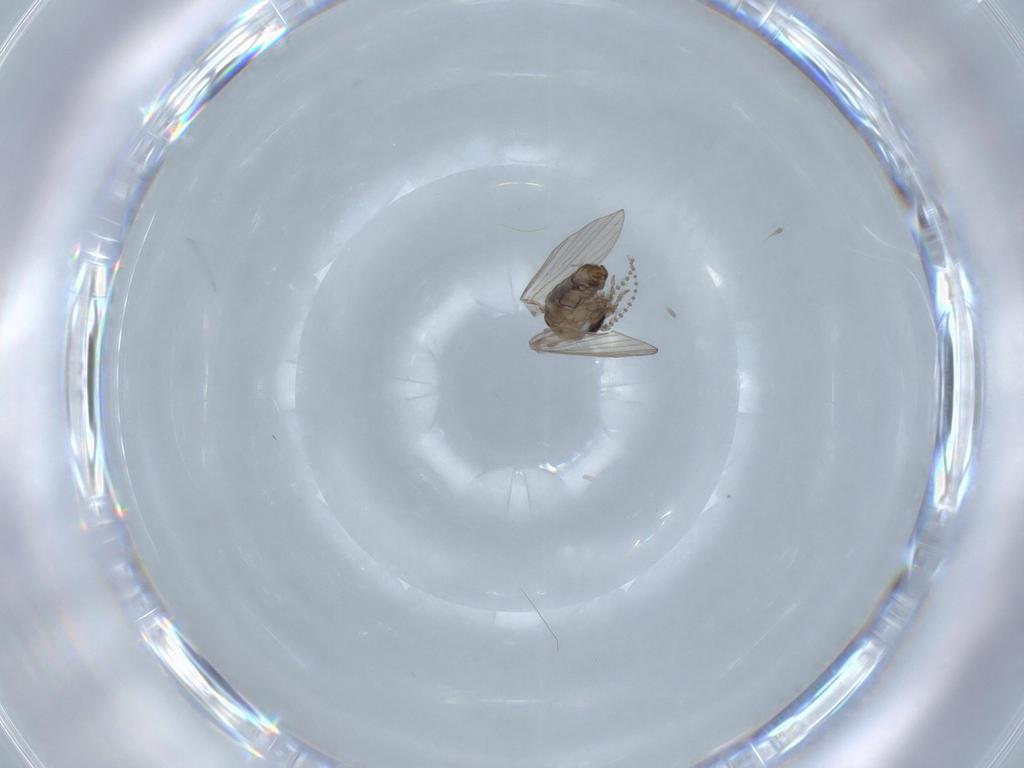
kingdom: Animalia
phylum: Arthropoda
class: Insecta
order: Diptera
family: Psychodidae
